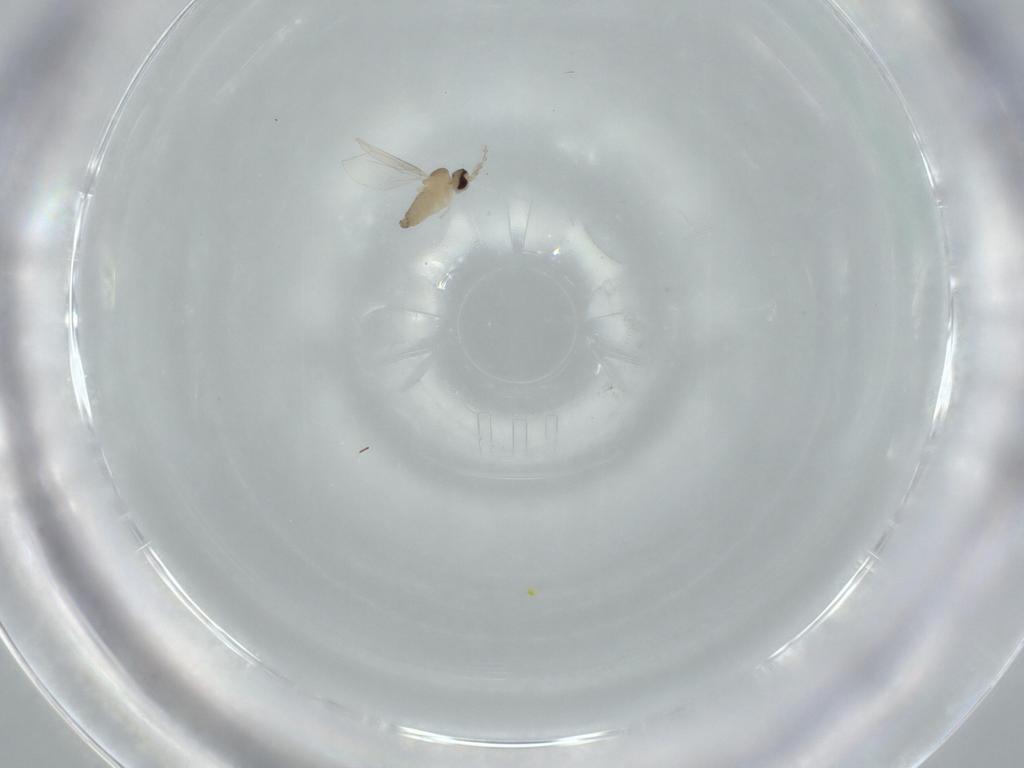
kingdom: Animalia
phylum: Arthropoda
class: Insecta
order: Diptera
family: Cecidomyiidae
